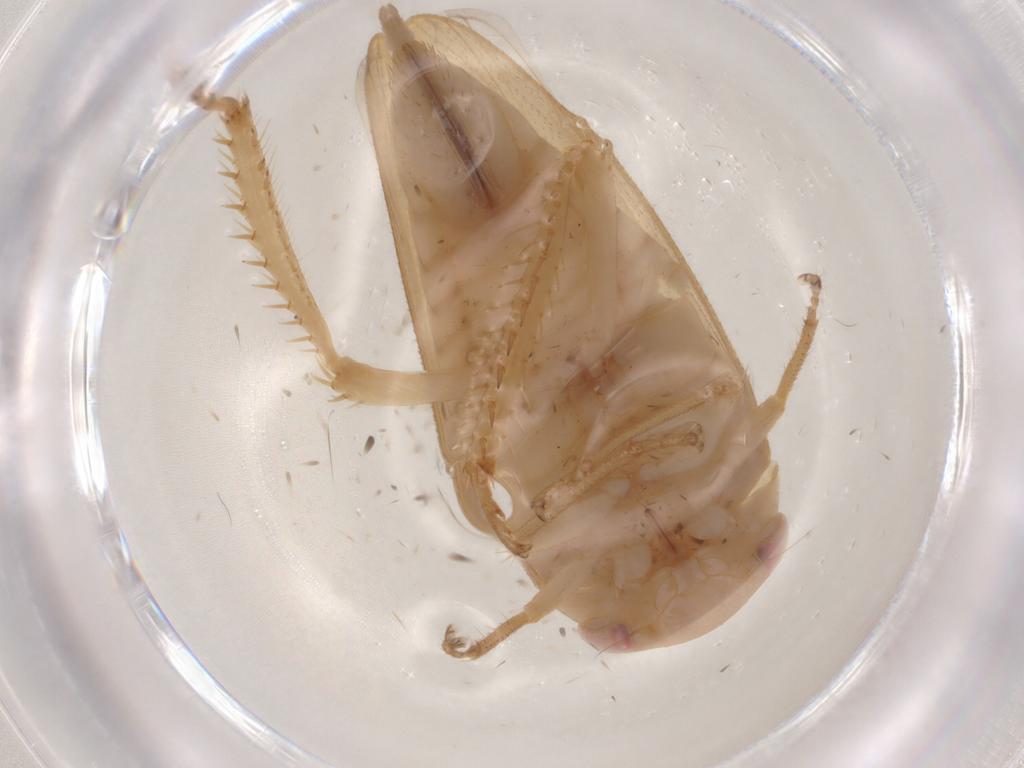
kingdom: Animalia
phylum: Arthropoda
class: Insecta
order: Hemiptera
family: Cicadellidae
